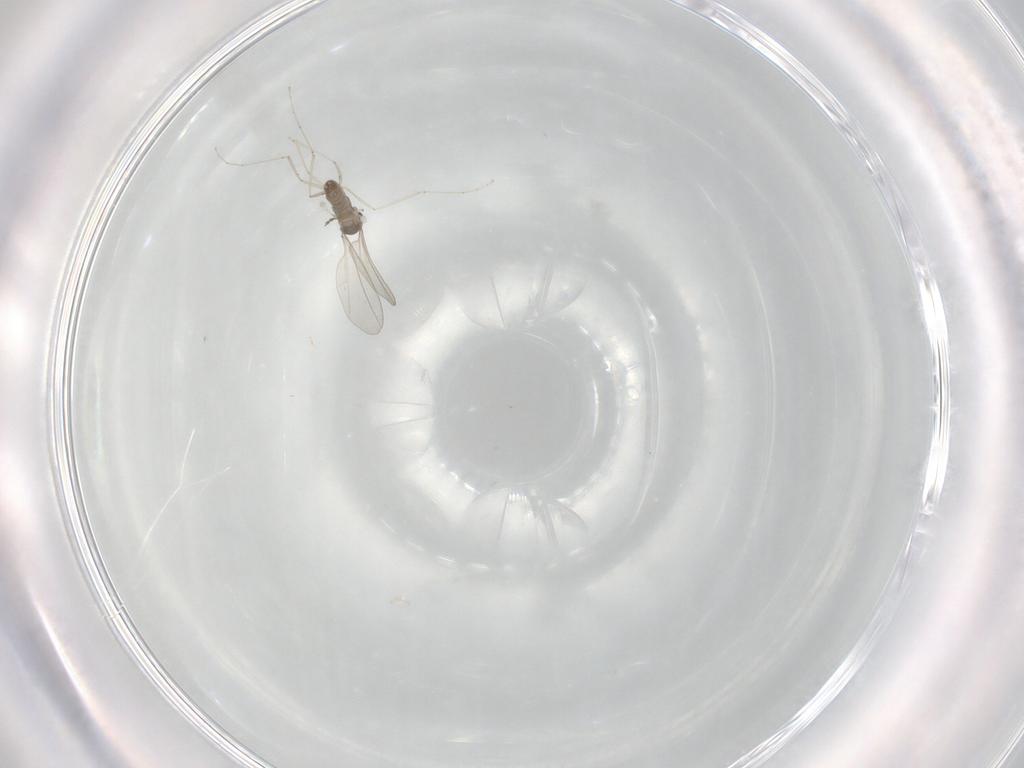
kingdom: Animalia
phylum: Arthropoda
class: Insecta
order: Diptera
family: Cecidomyiidae
